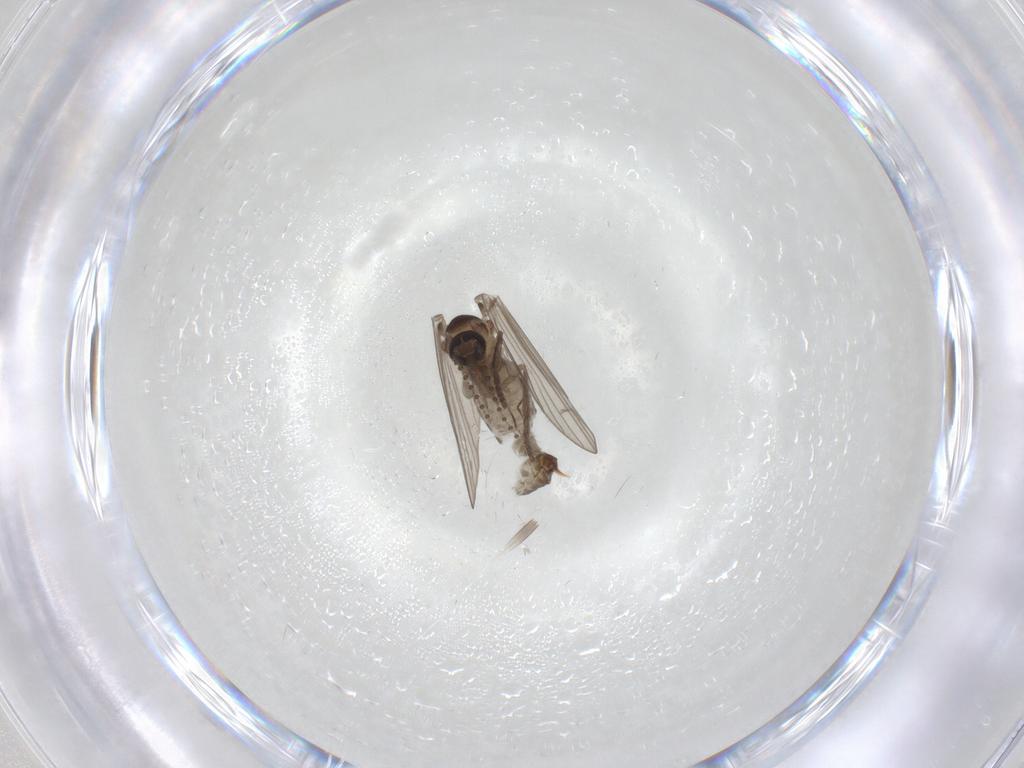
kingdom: Animalia
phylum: Arthropoda
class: Insecta
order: Diptera
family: Psychodidae
